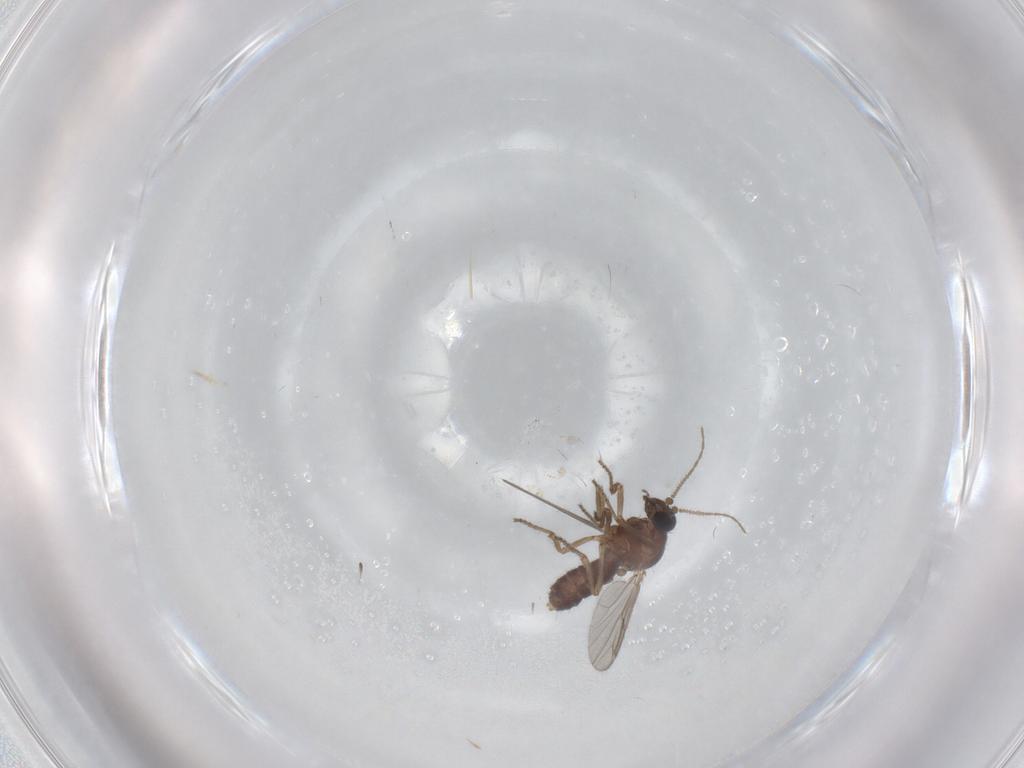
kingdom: Animalia
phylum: Arthropoda
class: Insecta
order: Diptera
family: Ceratopogonidae
